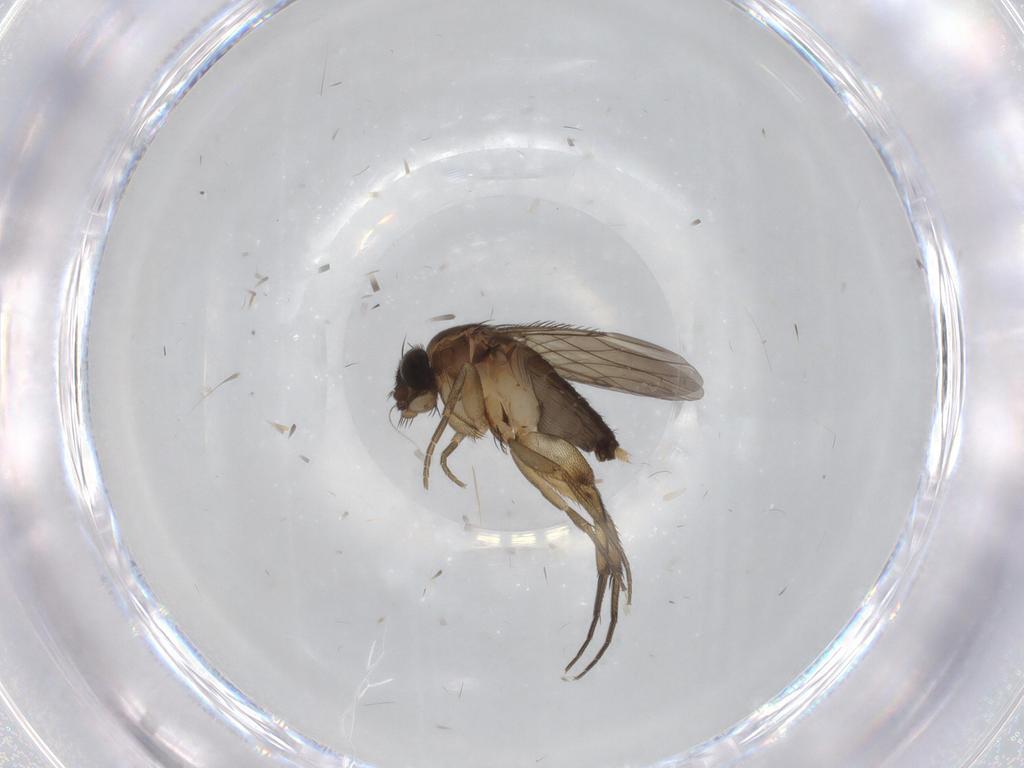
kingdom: Animalia
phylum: Arthropoda
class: Insecta
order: Diptera
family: Phoridae
